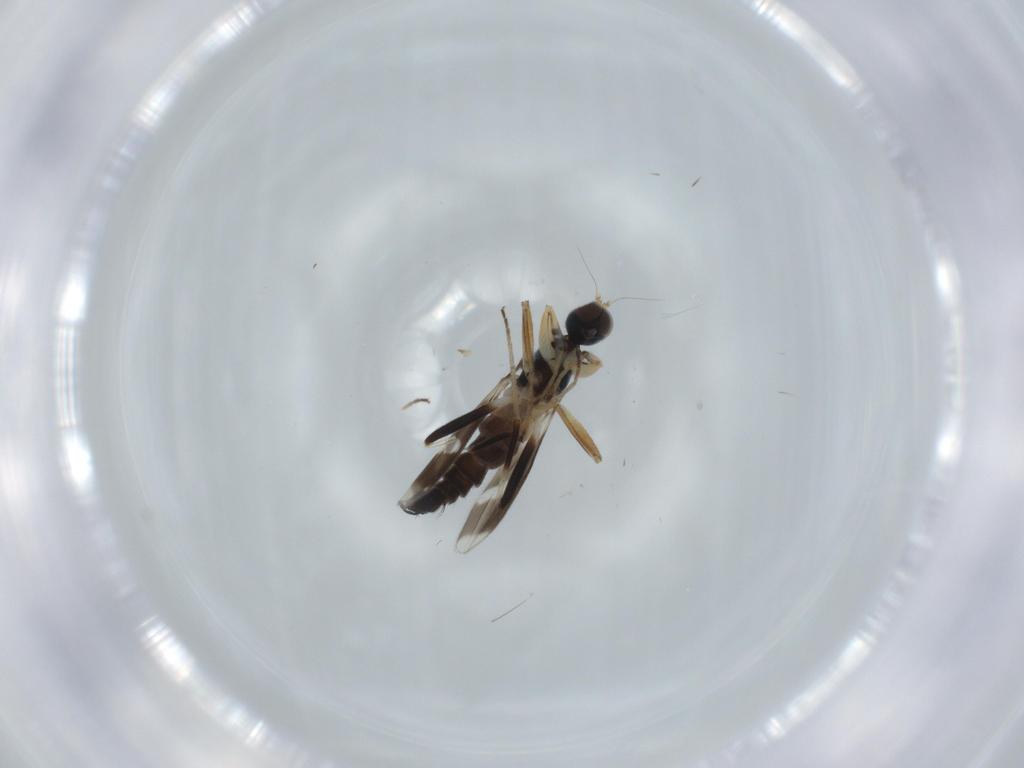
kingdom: Animalia
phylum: Arthropoda
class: Insecta
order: Diptera
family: Hybotidae
